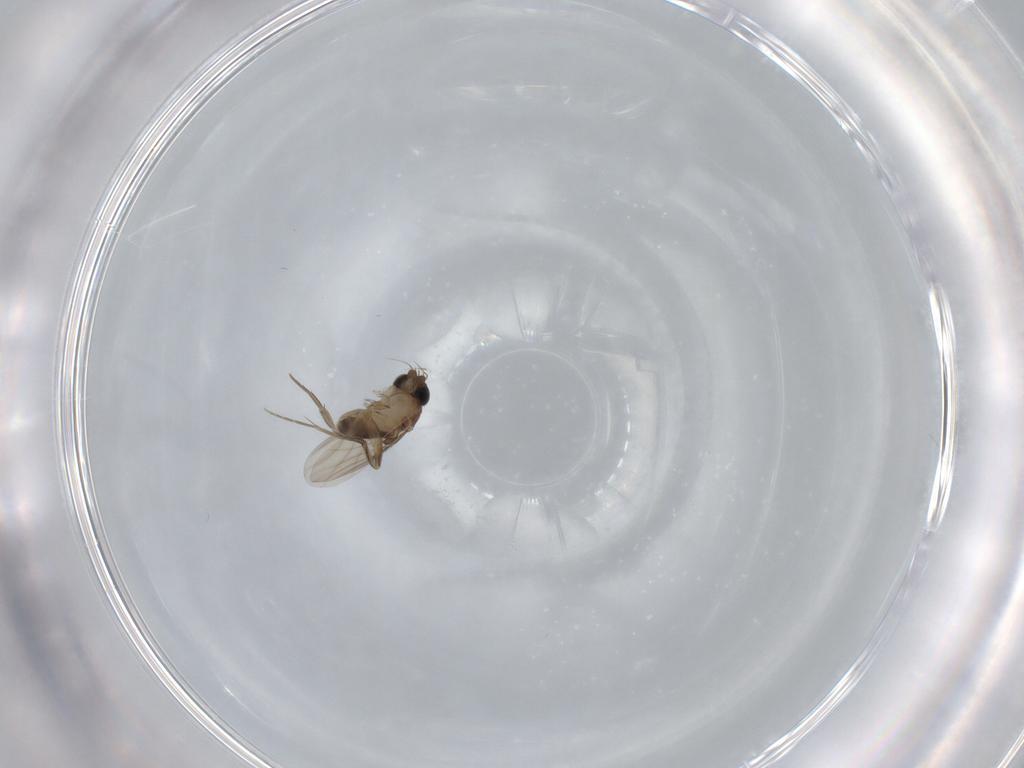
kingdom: Animalia
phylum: Arthropoda
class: Insecta
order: Diptera
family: Phoridae
